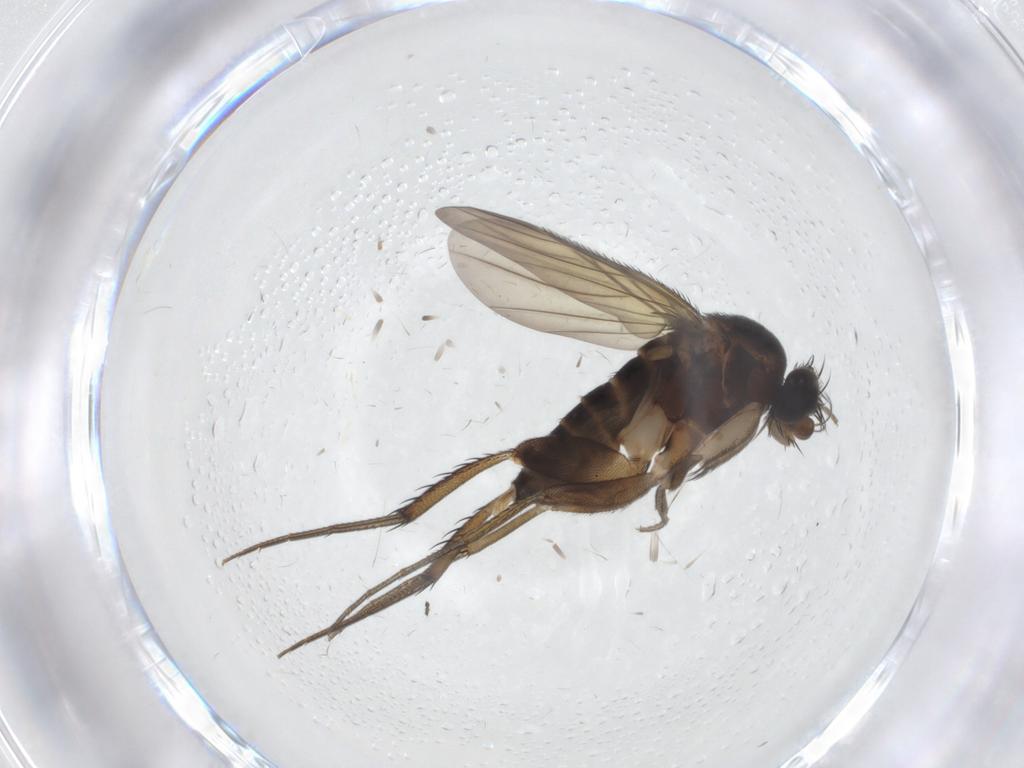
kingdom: Animalia
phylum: Arthropoda
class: Insecta
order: Diptera
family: Phoridae
